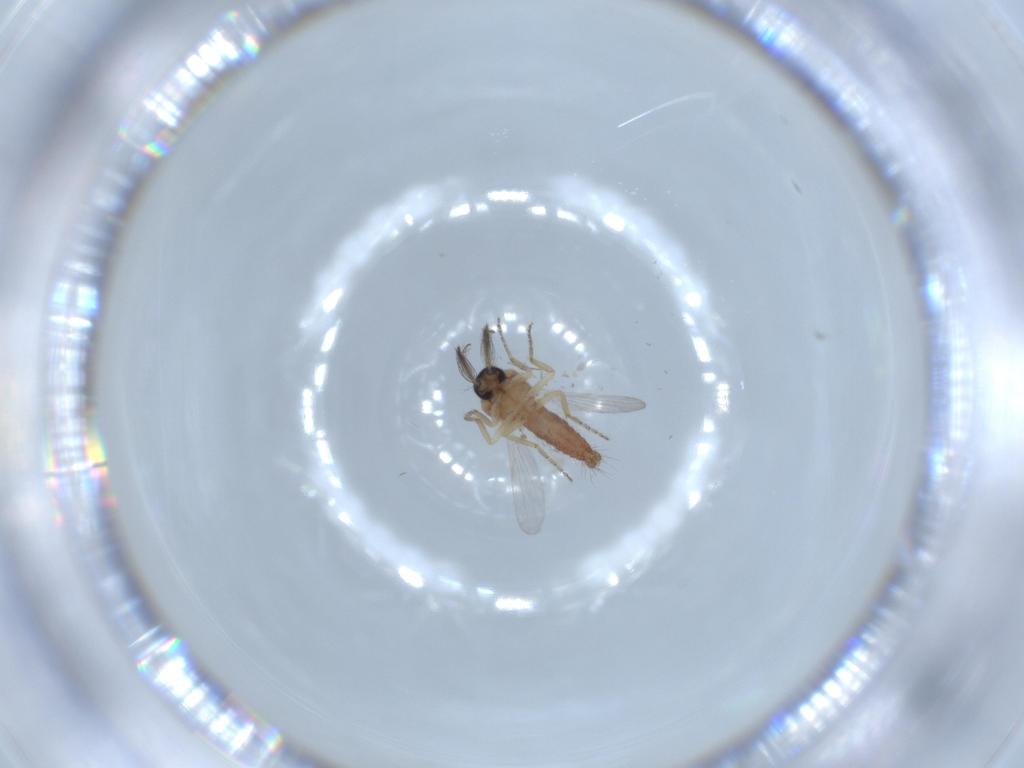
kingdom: Animalia
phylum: Arthropoda
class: Insecta
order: Diptera
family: Ceratopogonidae
